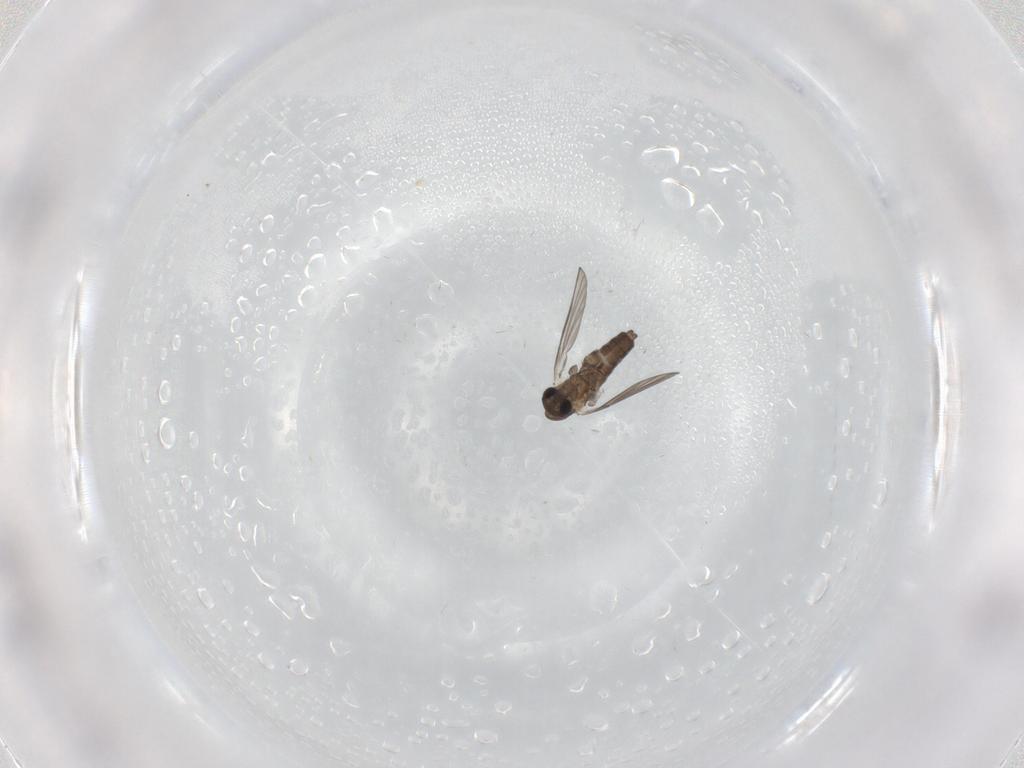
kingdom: Animalia
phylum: Arthropoda
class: Insecta
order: Diptera
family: Psychodidae
